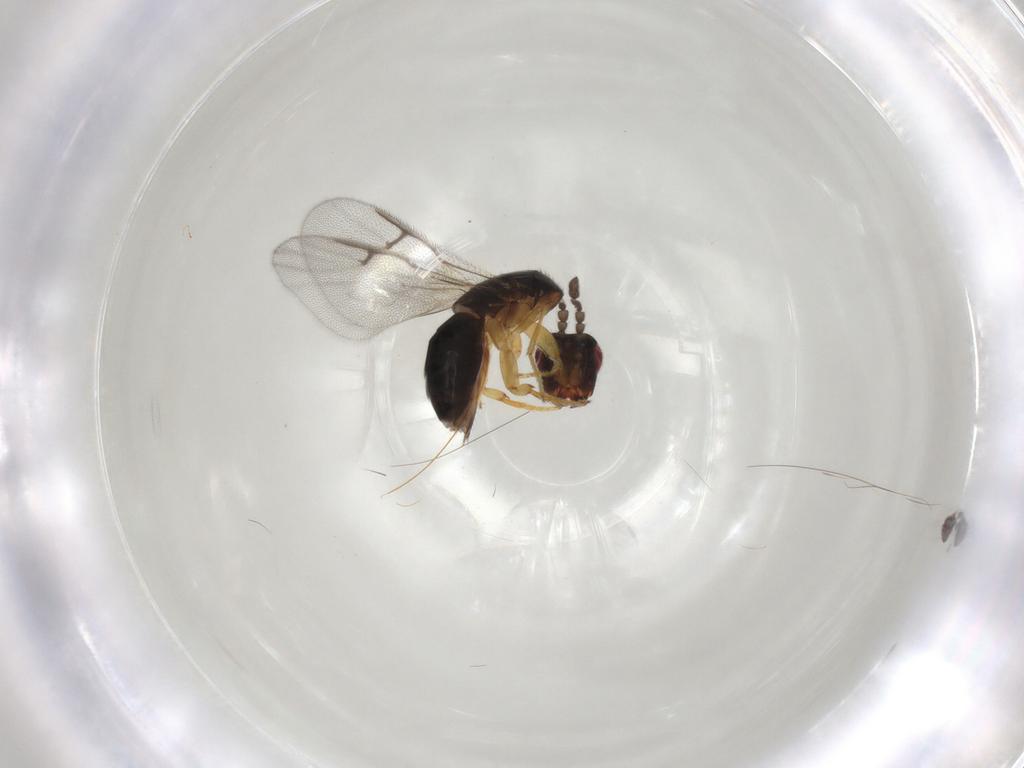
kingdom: Animalia
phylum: Arthropoda
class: Insecta
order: Hymenoptera
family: Agaonidae
